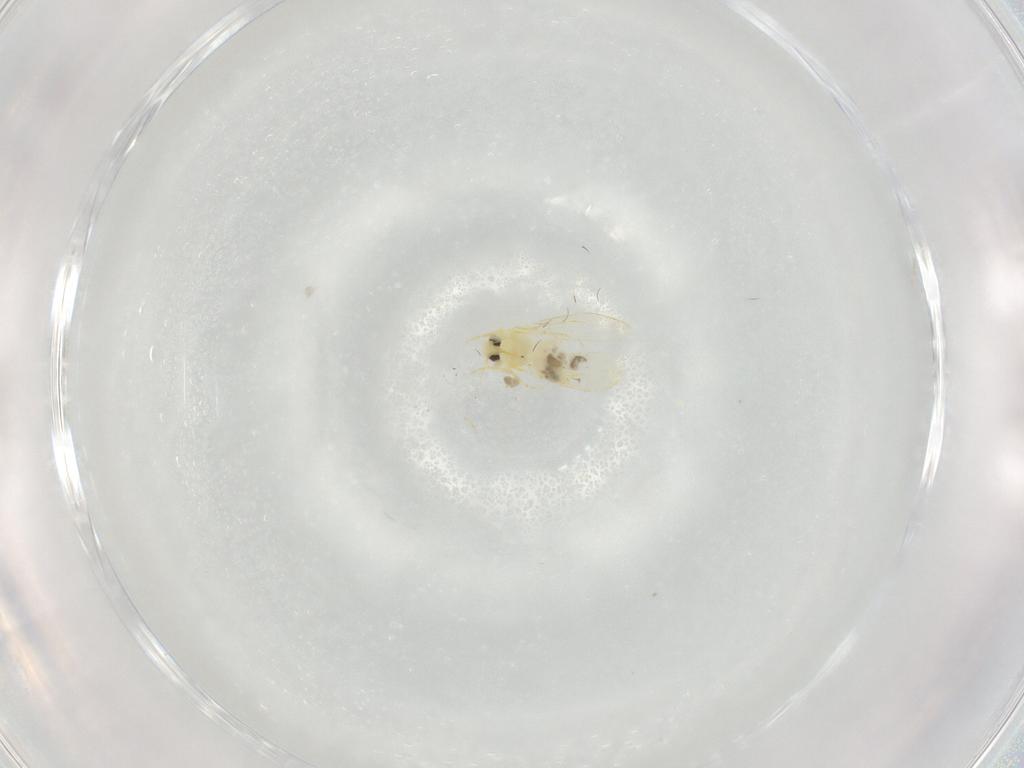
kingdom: Animalia
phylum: Arthropoda
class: Insecta
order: Hemiptera
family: Aleyrodidae
